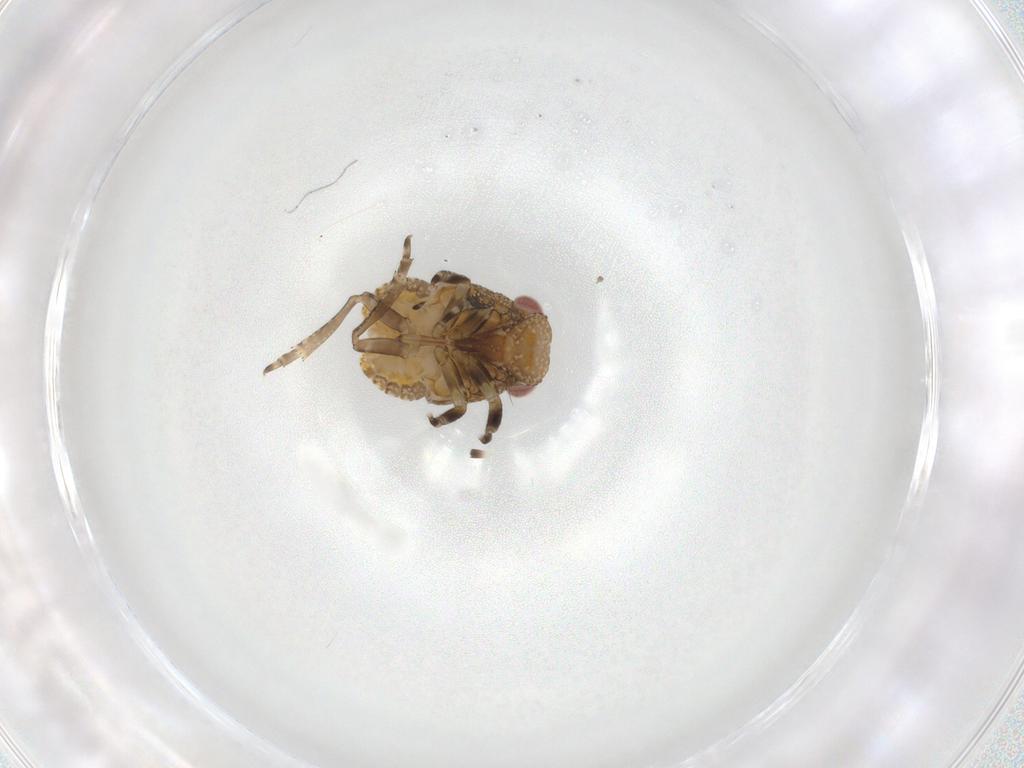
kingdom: Animalia
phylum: Arthropoda
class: Insecta
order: Hemiptera
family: Fulgoroidea_incertae_sedis
